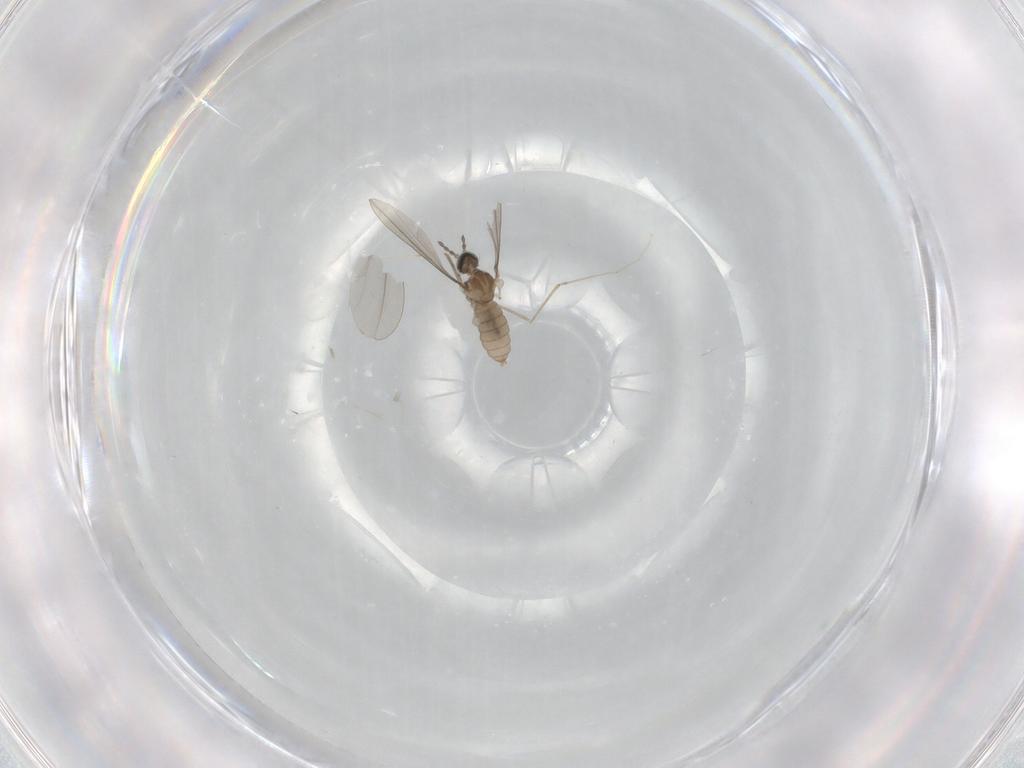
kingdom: Animalia
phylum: Arthropoda
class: Insecta
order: Diptera
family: Cecidomyiidae
